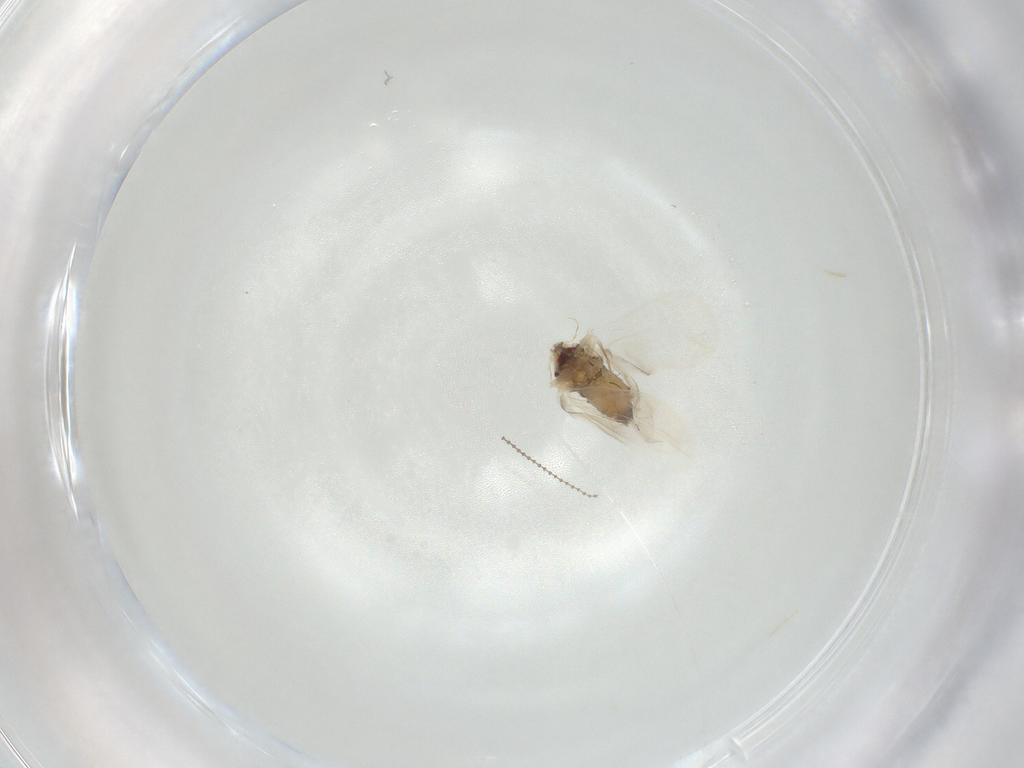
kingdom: Animalia
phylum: Arthropoda
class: Insecta
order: Hemiptera
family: Aleyrodidae
